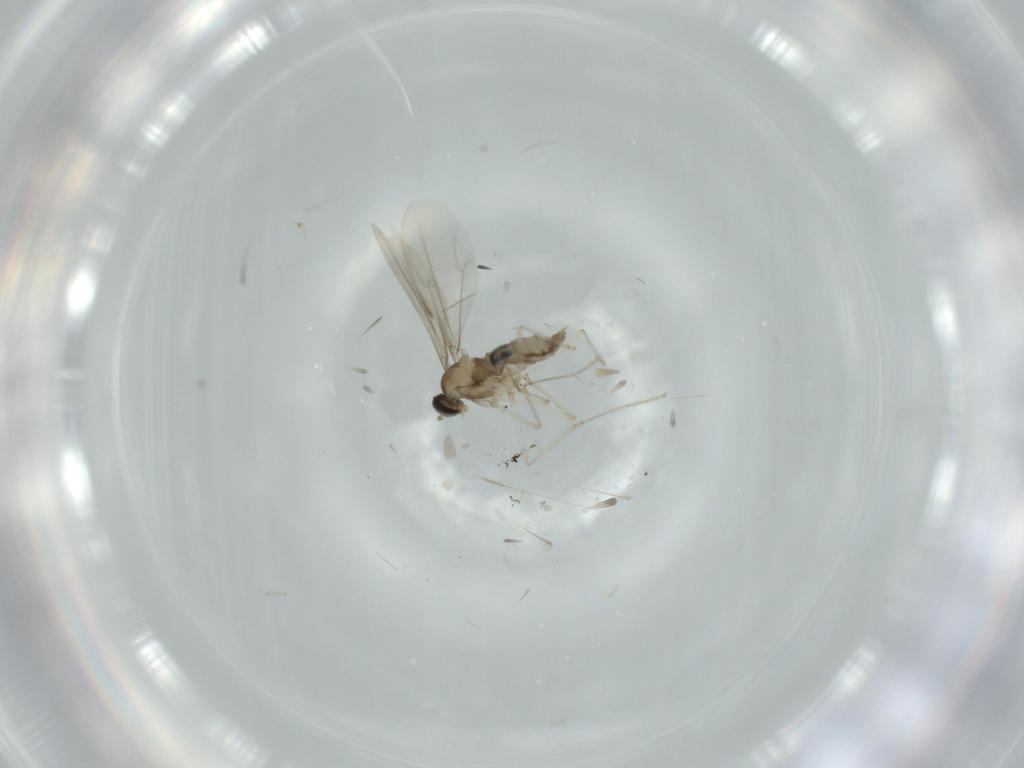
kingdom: Animalia
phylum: Arthropoda
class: Insecta
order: Diptera
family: Cecidomyiidae
